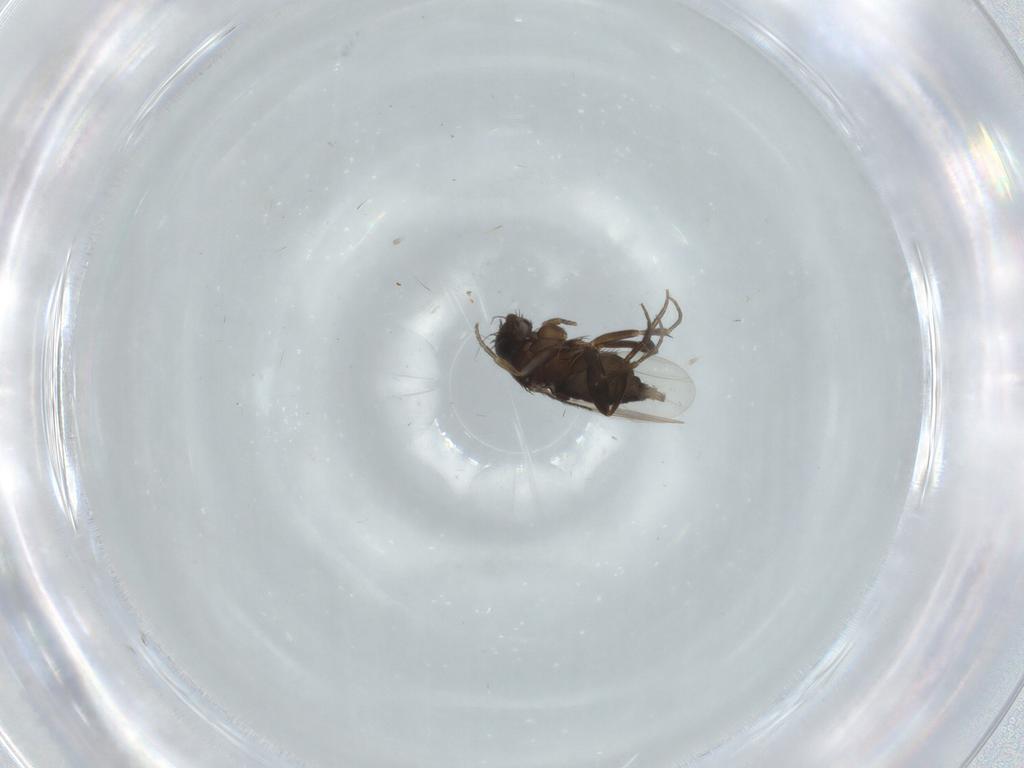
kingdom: Animalia
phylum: Arthropoda
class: Insecta
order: Diptera
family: Phoridae
